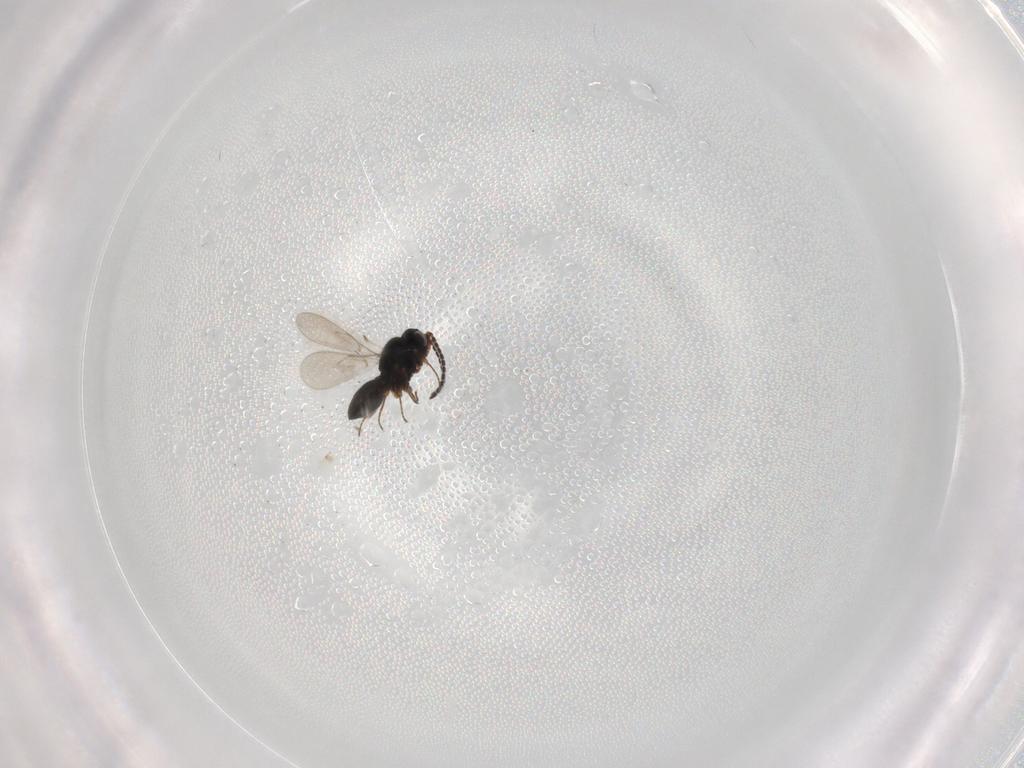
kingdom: Animalia
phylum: Arthropoda
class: Insecta
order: Hymenoptera
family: Scelionidae
